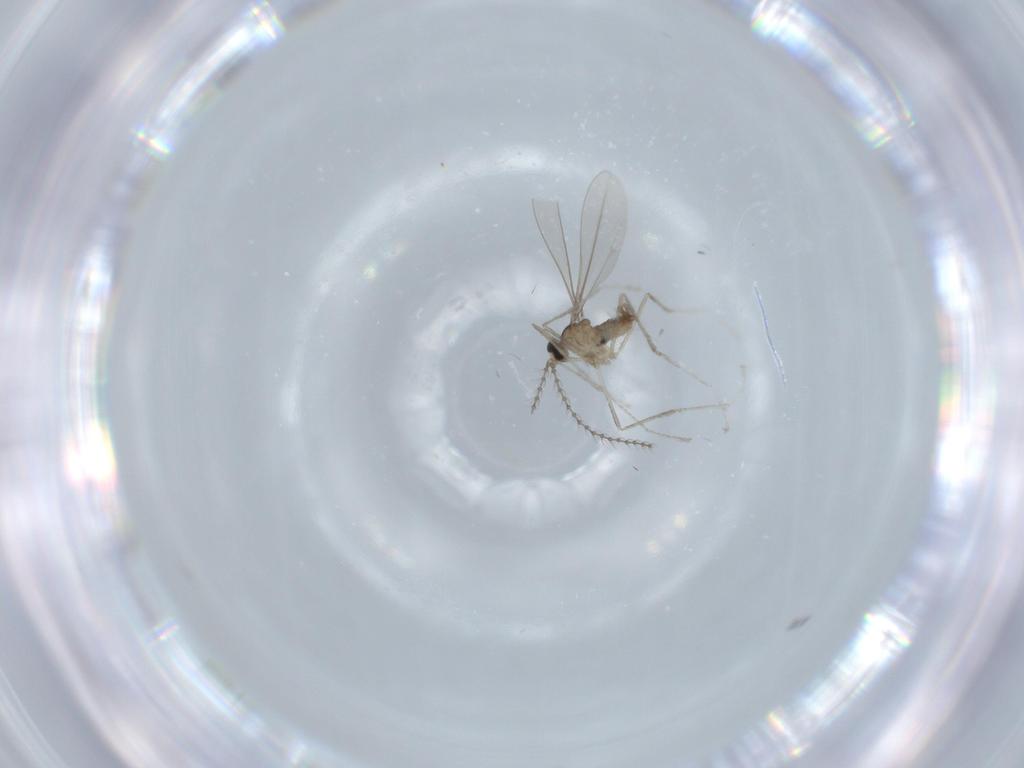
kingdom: Animalia
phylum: Arthropoda
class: Insecta
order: Diptera
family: Cecidomyiidae
